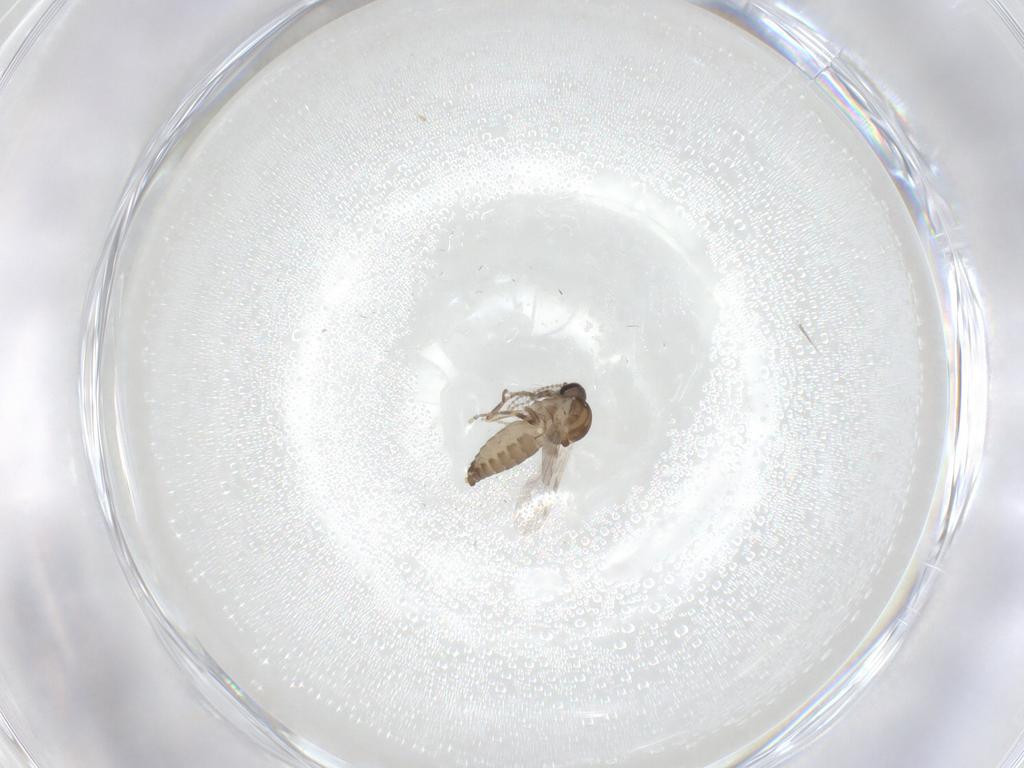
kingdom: Animalia
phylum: Arthropoda
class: Insecta
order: Diptera
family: Ceratopogonidae
